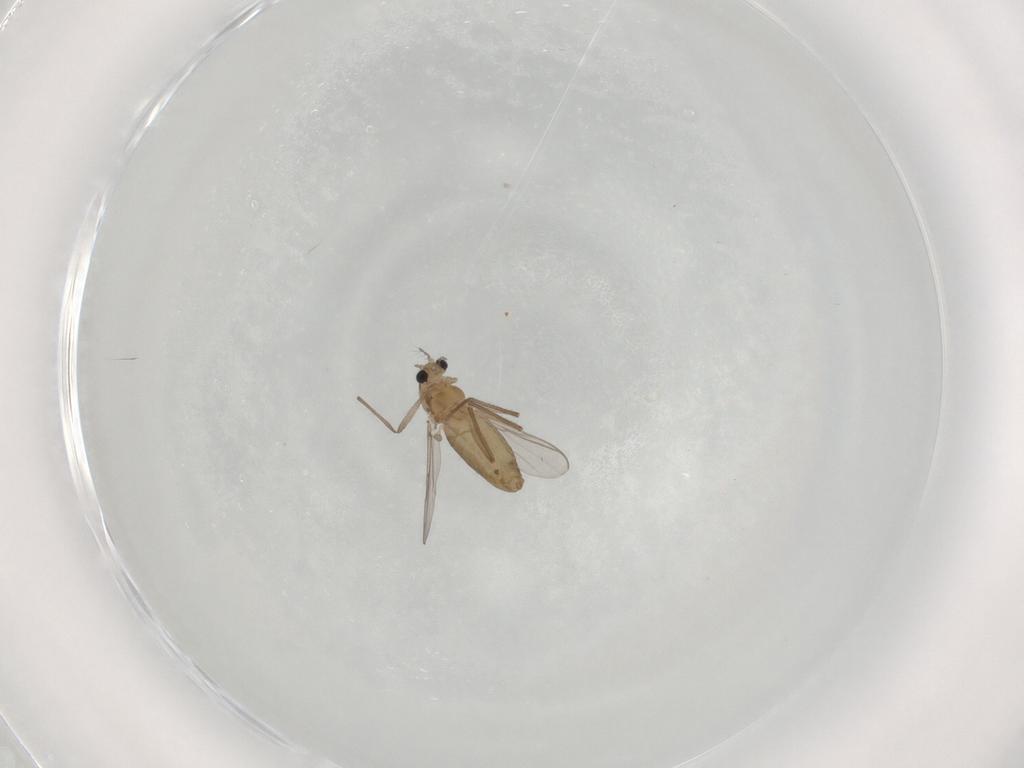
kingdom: Animalia
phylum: Arthropoda
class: Insecta
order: Diptera
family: Chironomidae
